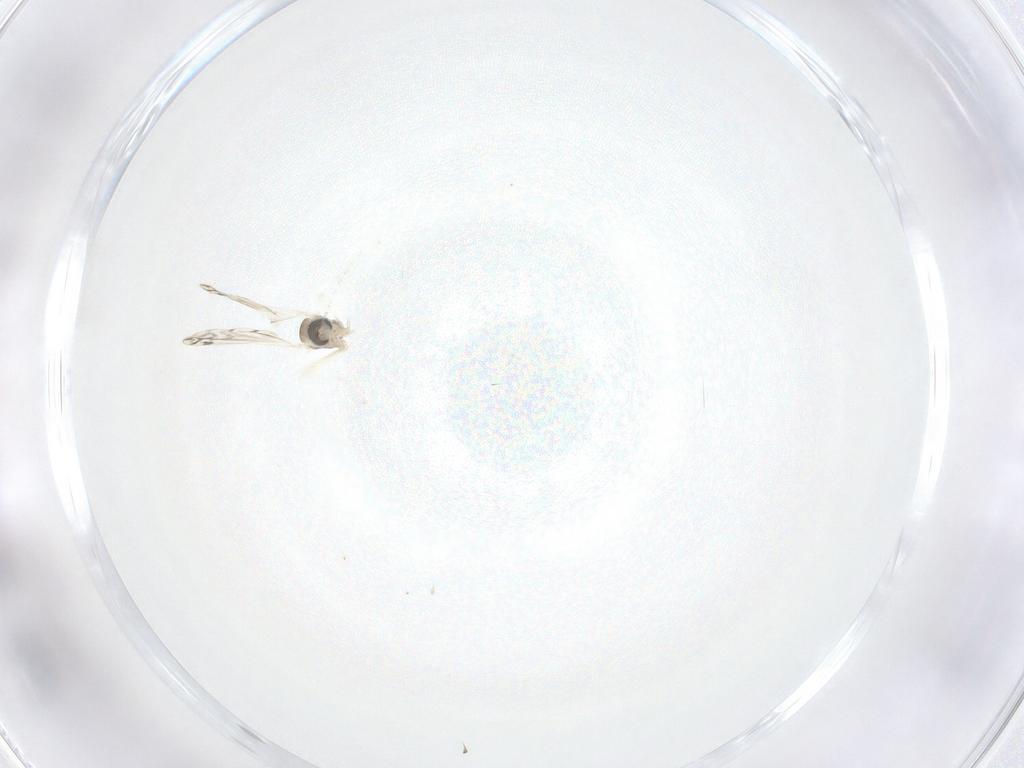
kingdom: Animalia
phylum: Arthropoda
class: Insecta
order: Diptera
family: Cecidomyiidae
